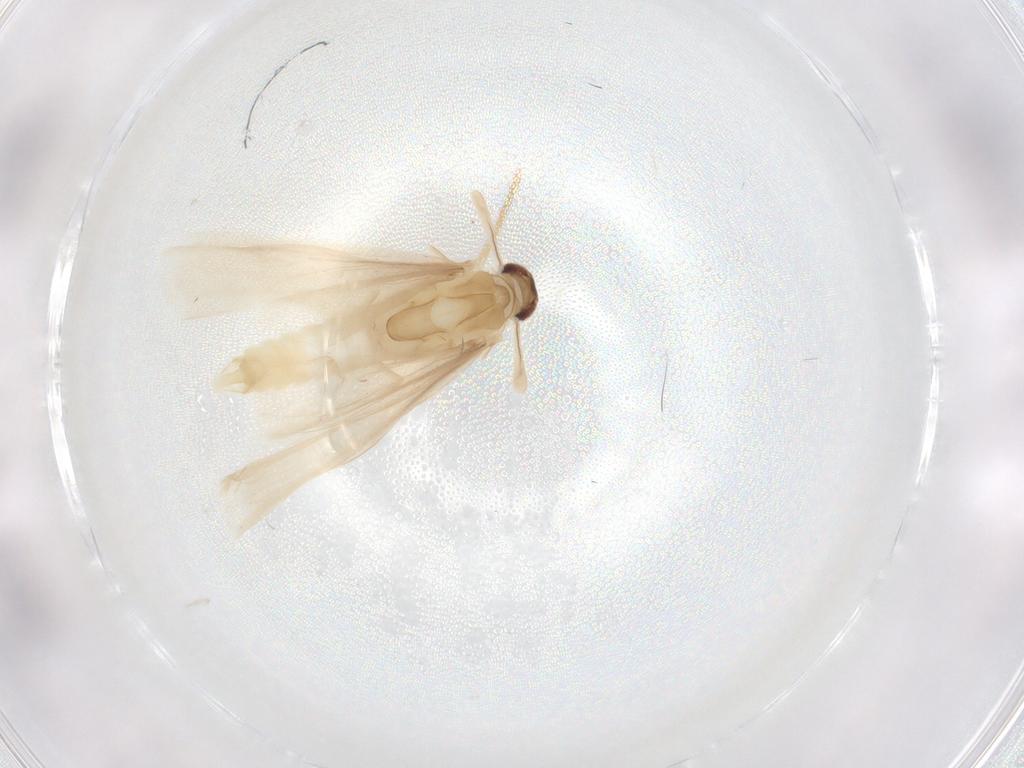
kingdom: Animalia
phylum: Arthropoda
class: Insecta
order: Strepsiptera
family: Mengenillidae
